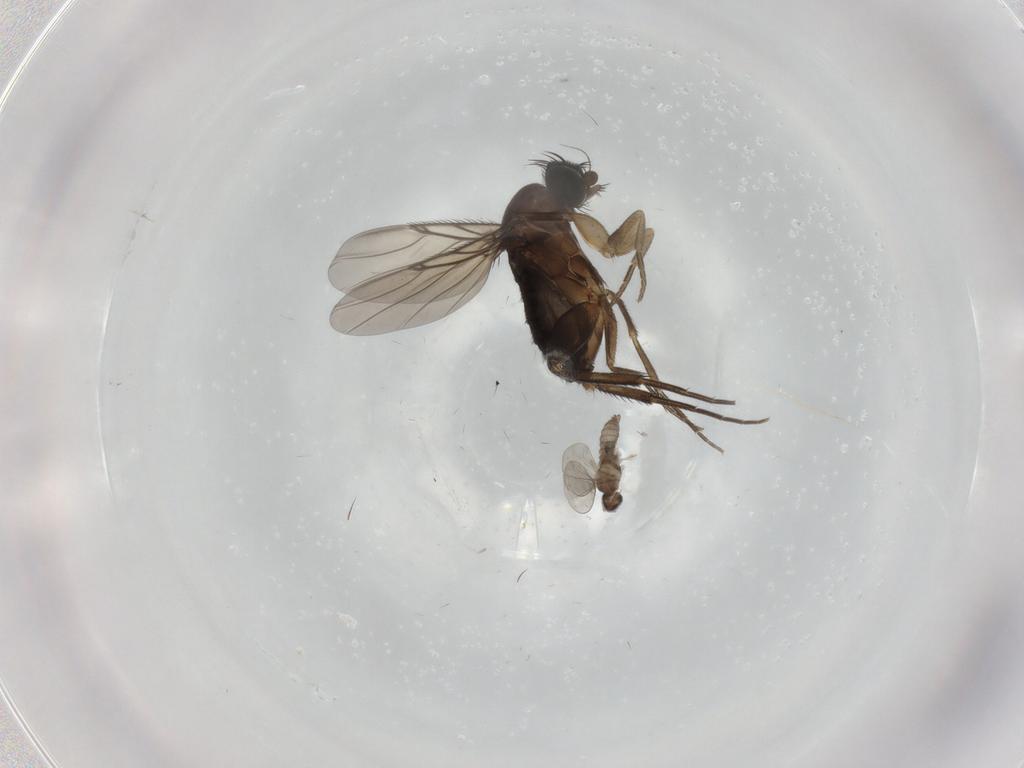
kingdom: Animalia
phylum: Arthropoda
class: Insecta
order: Diptera
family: Phoridae
